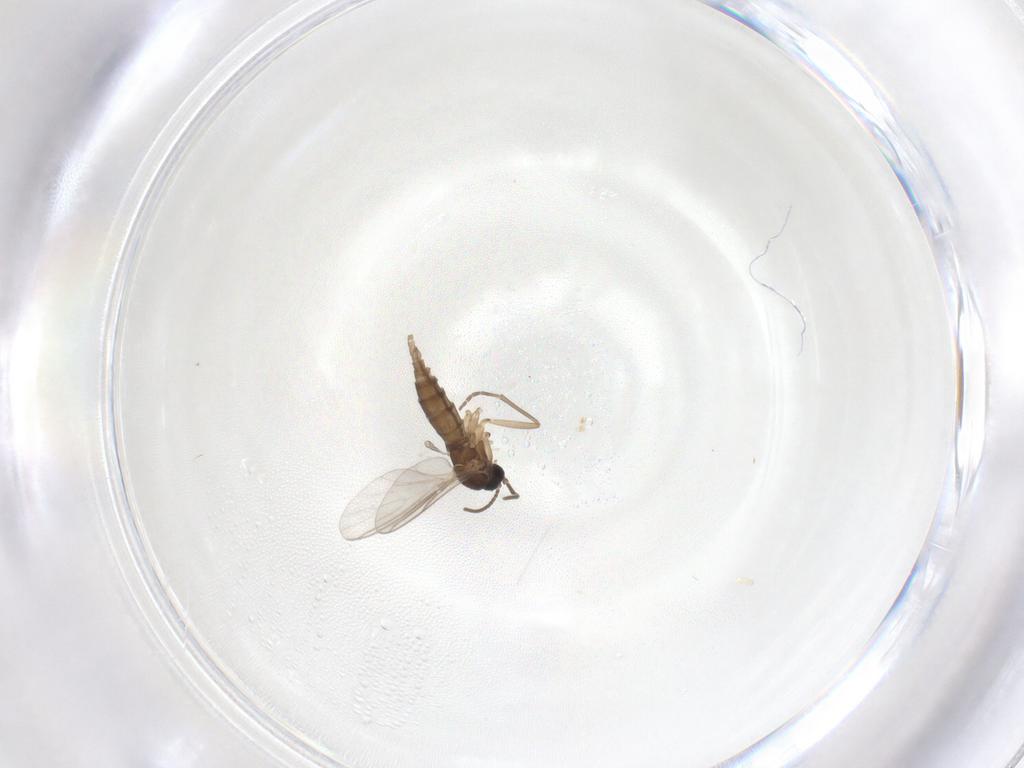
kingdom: Animalia
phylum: Arthropoda
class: Insecta
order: Diptera
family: Sciaridae
